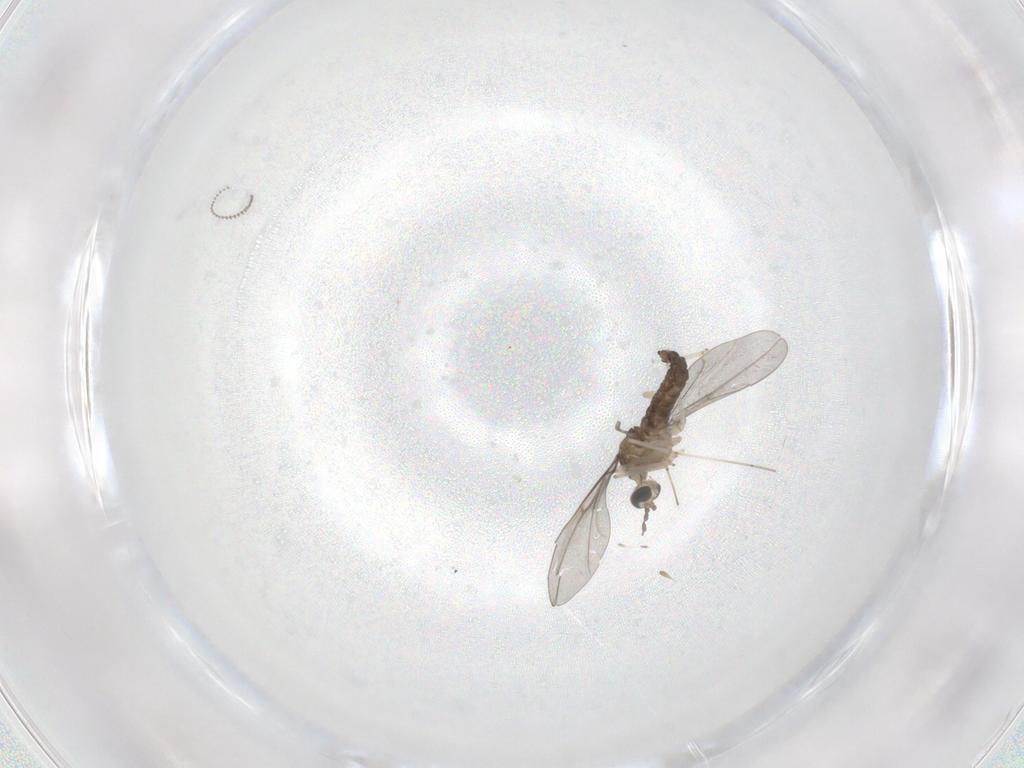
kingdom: Animalia
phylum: Arthropoda
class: Insecta
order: Diptera
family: Cecidomyiidae
